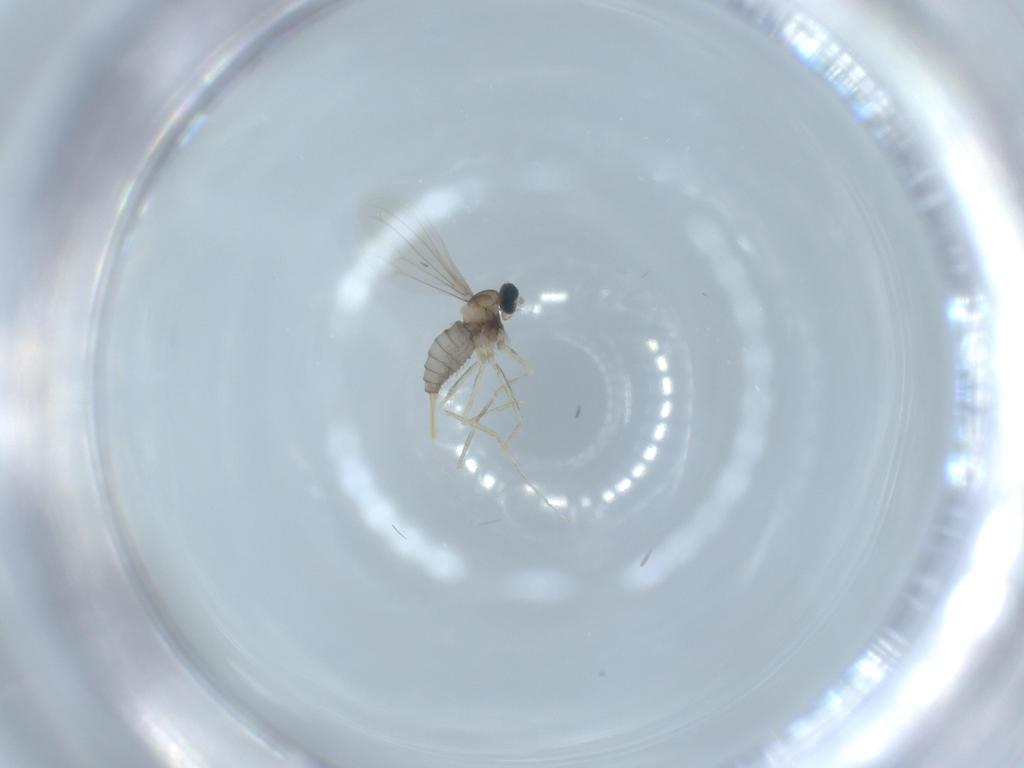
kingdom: Animalia
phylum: Arthropoda
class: Insecta
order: Diptera
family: Cecidomyiidae
